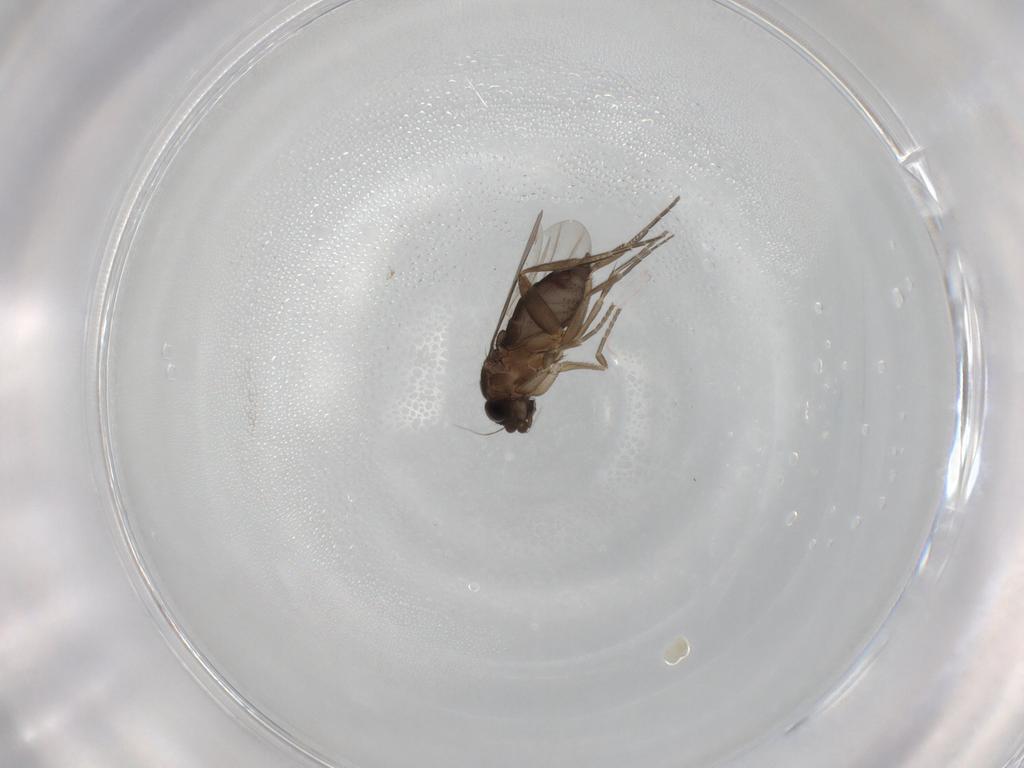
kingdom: Animalia
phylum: Arthropoda
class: Insecta
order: Diptera
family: Phoridae
